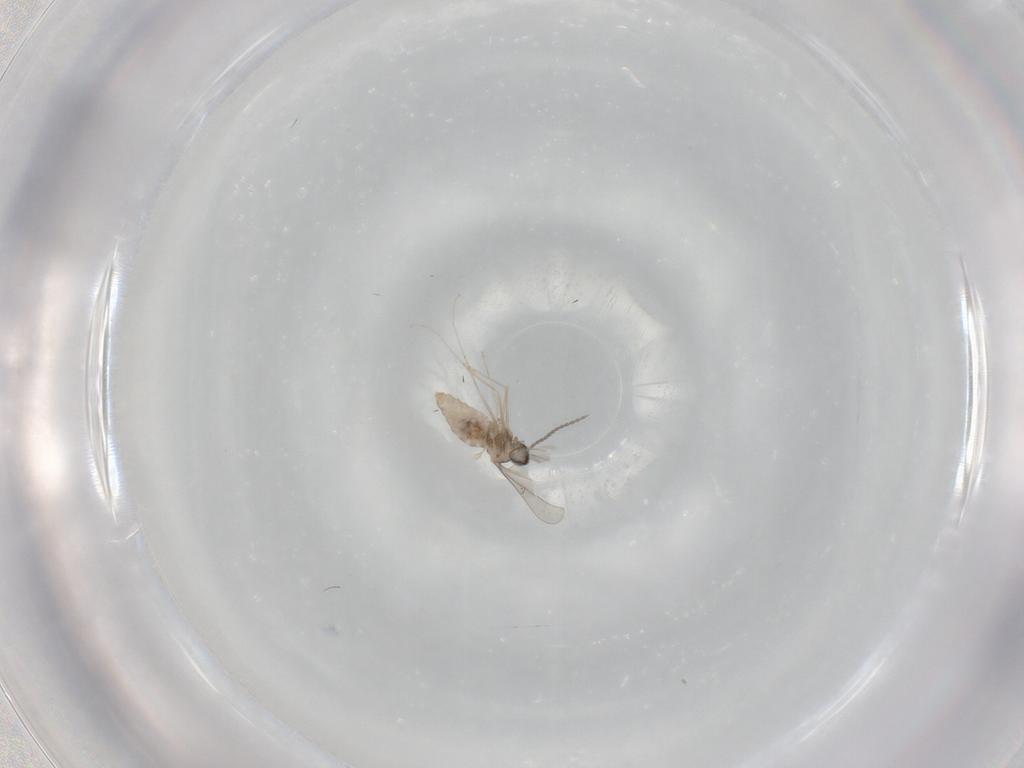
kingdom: Animalia
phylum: Arthropoda
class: Insecta
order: Diptera
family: Cecidomyiidae
